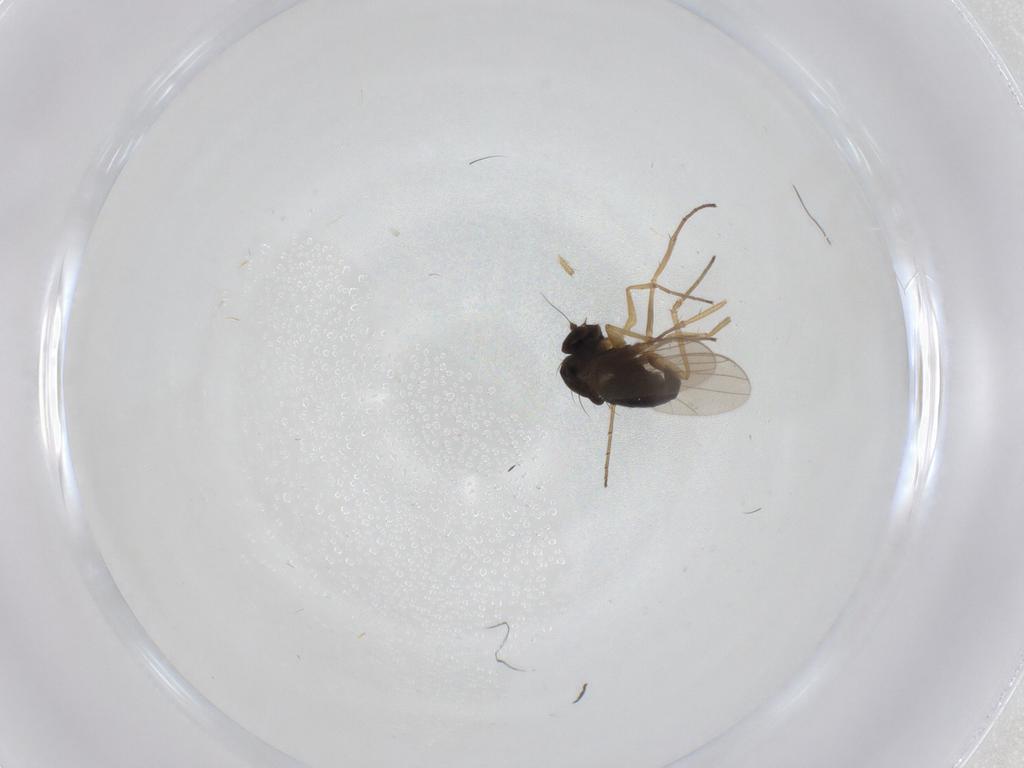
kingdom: Animalia
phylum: Arthropoda
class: Insecta
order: Diptera
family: Dolichopodidae
